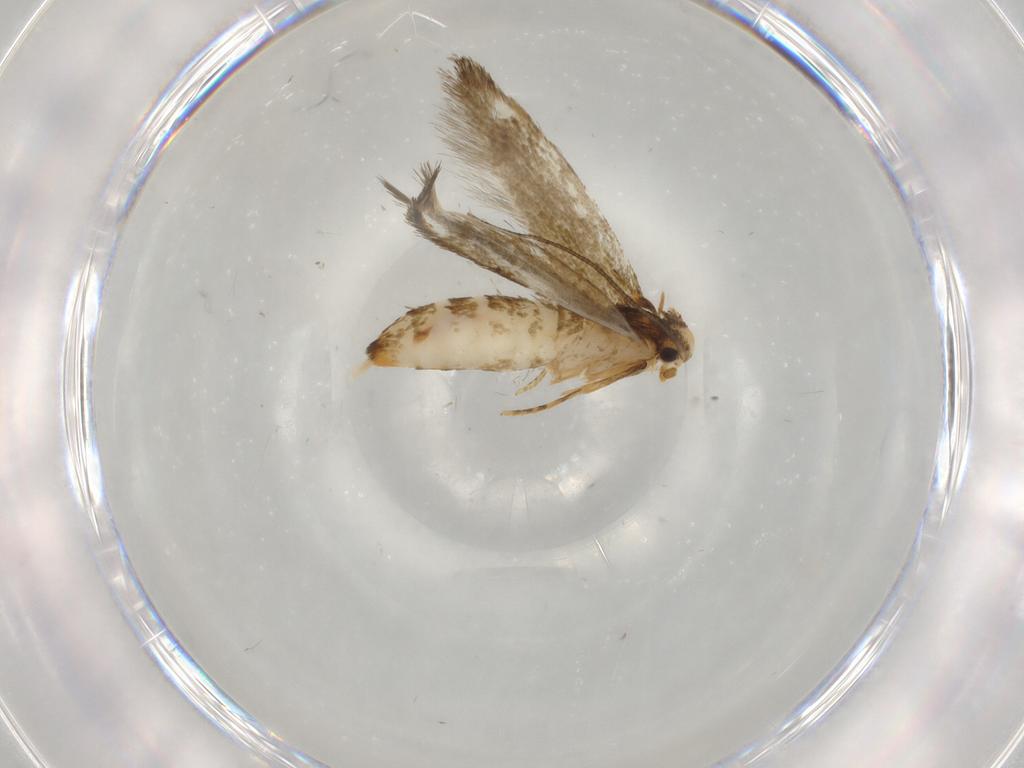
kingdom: Animalia
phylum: Arthropoda
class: Insecta
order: Lepidoptera
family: Tineidae
